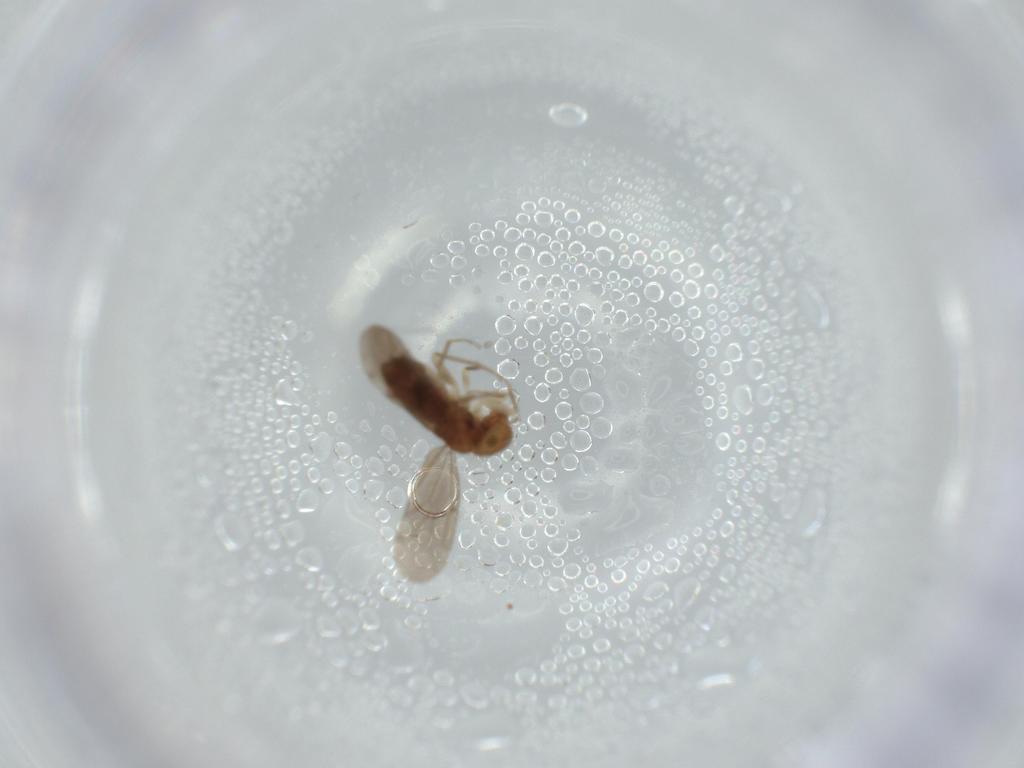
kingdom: Animalia
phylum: Arthropoda
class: Insecta
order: Psocodea
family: Ectopsocidae
